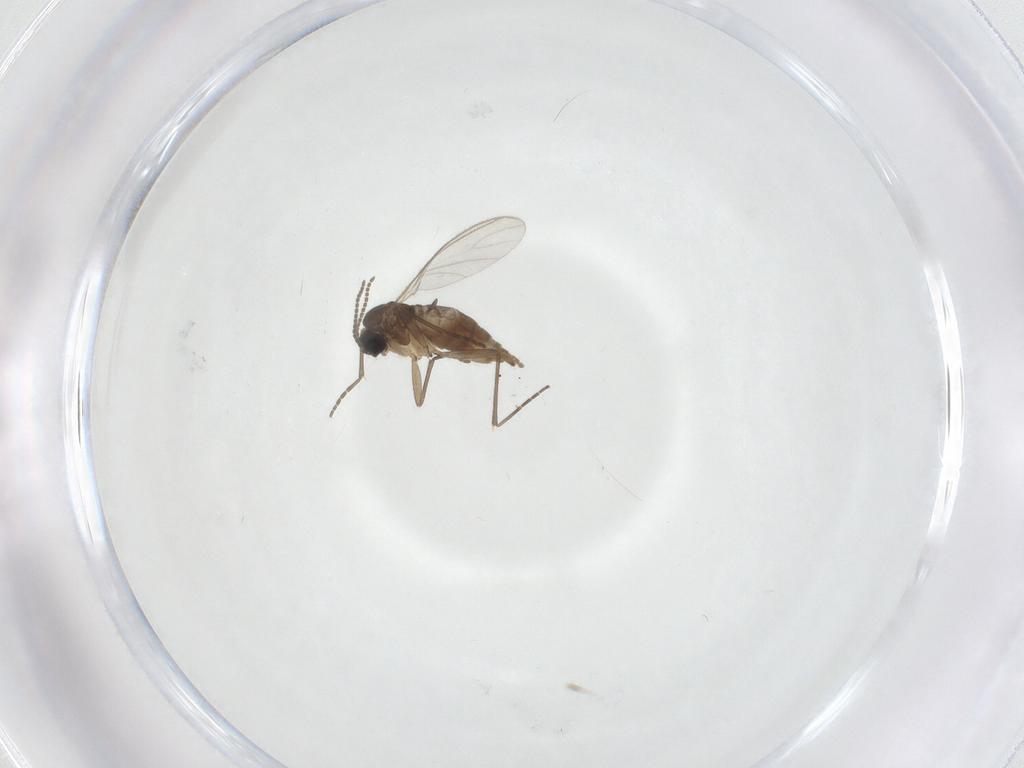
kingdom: Animalia
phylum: Arthropoda
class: Insecta
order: Diptera
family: Sciaridae
